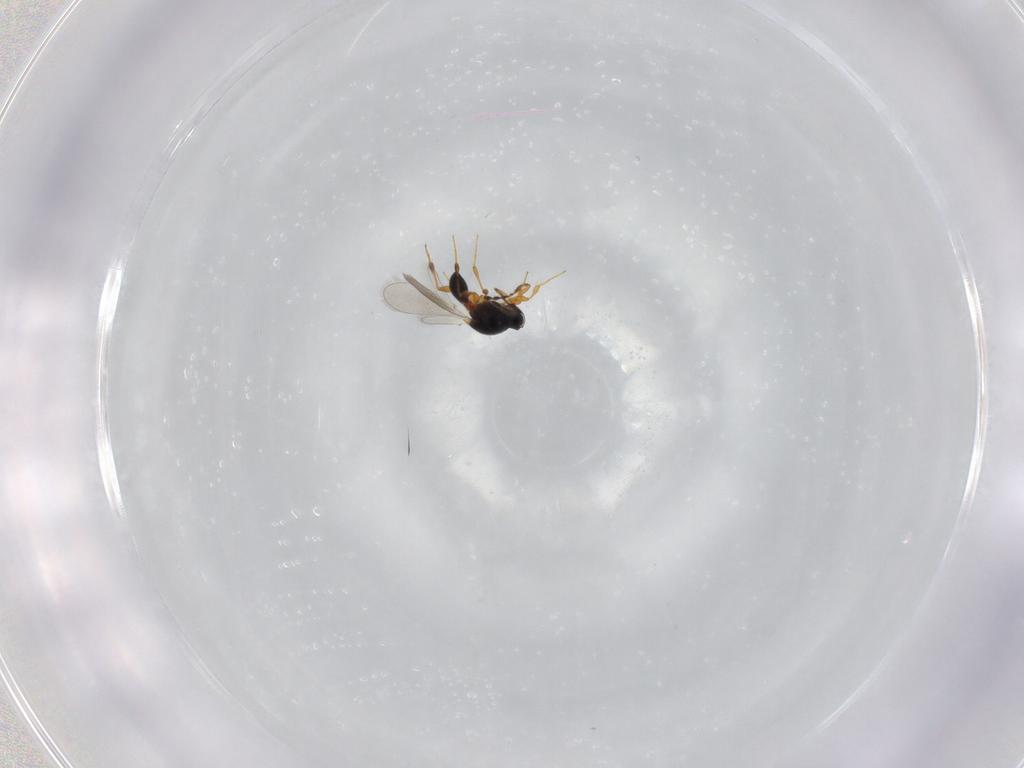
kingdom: Animalia
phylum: Arthropoda
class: Insecta
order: Hymenoptera
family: Platygastridae
